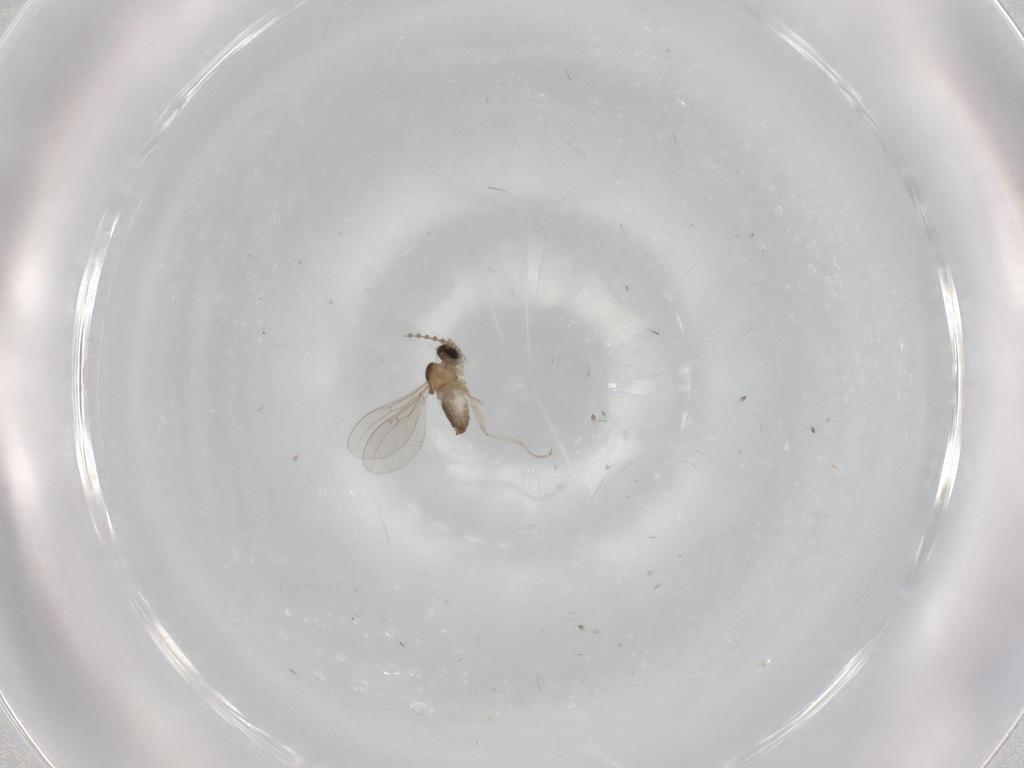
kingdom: Animalia
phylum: Arthropoda
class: Insecta
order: Diptera
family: Cecidomyiidae
